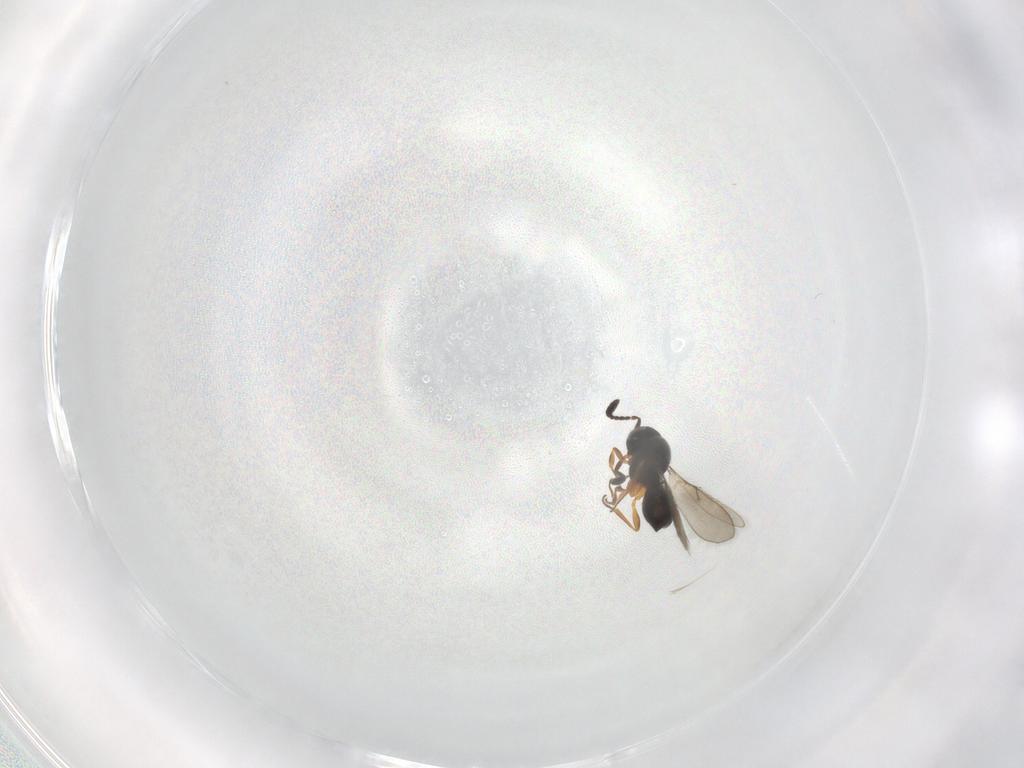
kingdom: Animalia
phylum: Arthropoda
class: Insecta
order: Hymenoptera
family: Scelionidae
